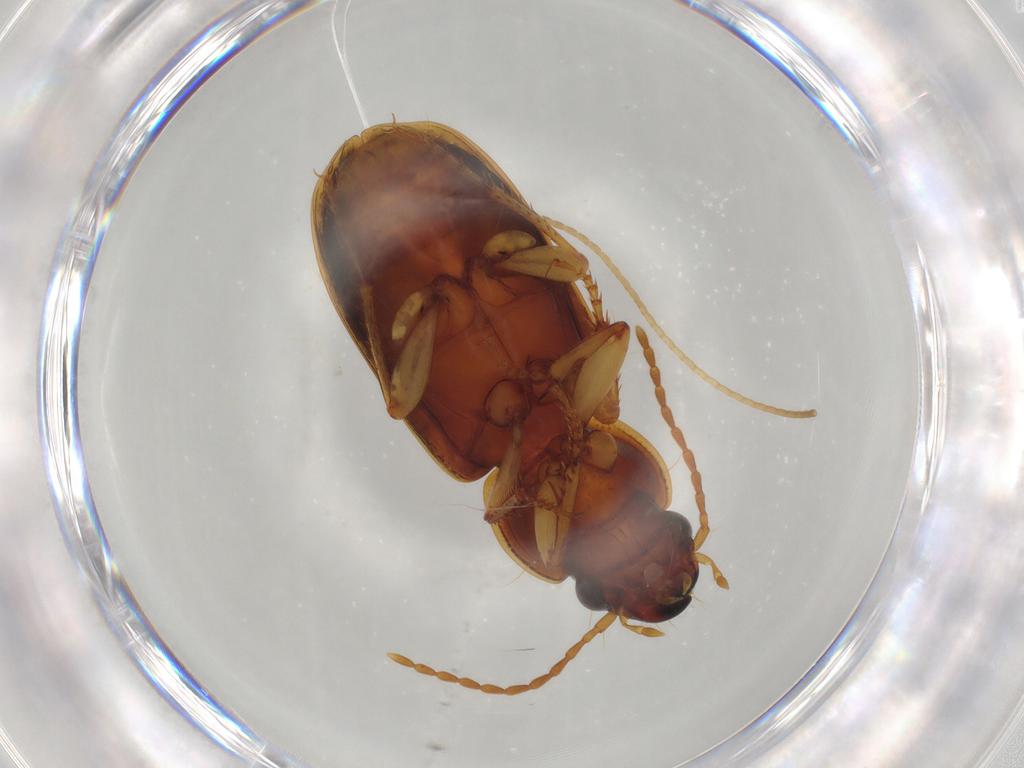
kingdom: Animalia
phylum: Arthropoda
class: Insecta
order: Coleoptera
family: Carabidae
